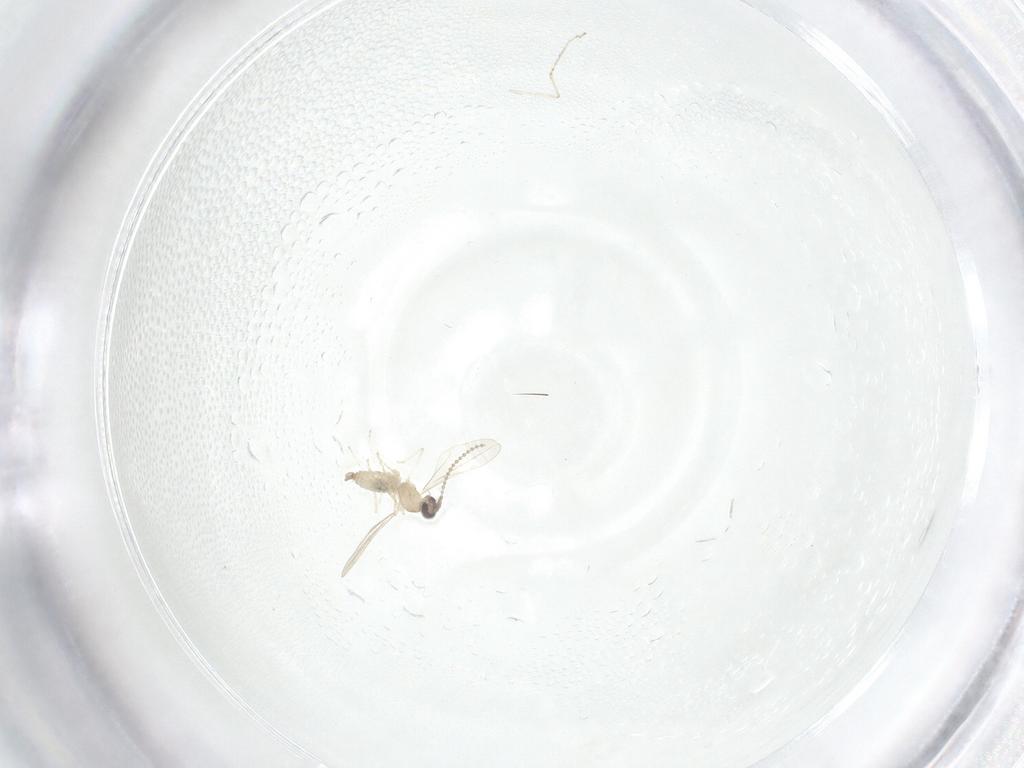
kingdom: Animalia
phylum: Arthropoda
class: Insecta
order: Diptera
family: Cecidomyiidae
